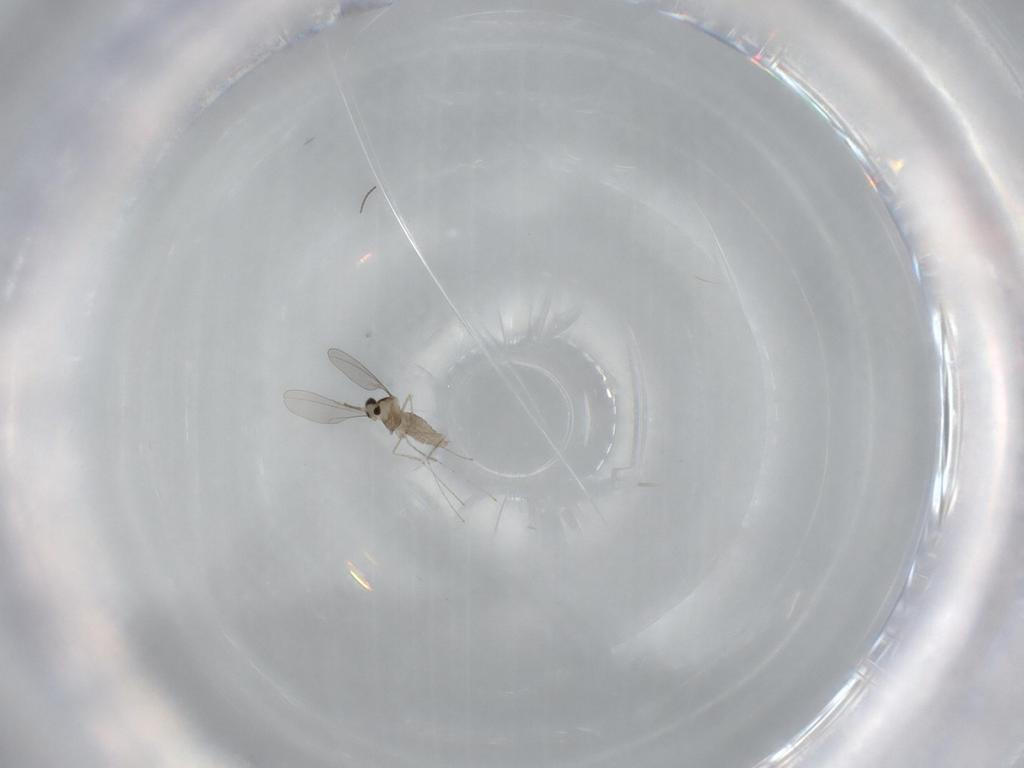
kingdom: Animalia
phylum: Arthropoda
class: Insecta
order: Diptera
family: Cecidomyiidae
